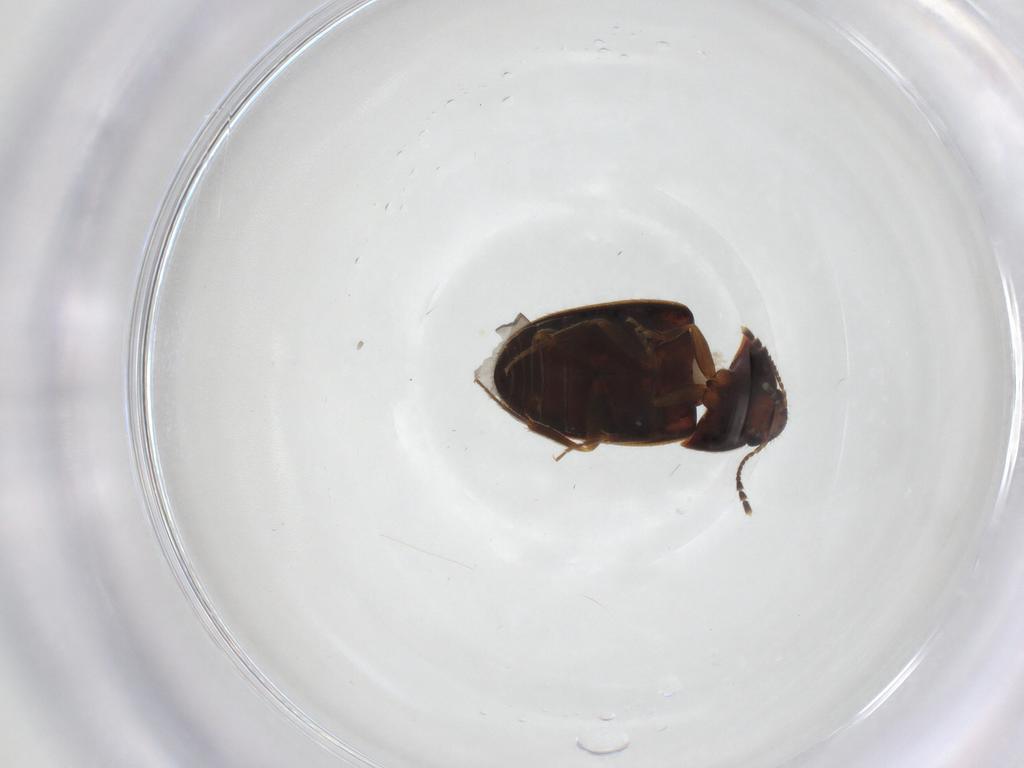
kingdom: Animalia
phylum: Arthropoda
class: Insecta
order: Coleoptera
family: Mycetophagidae
